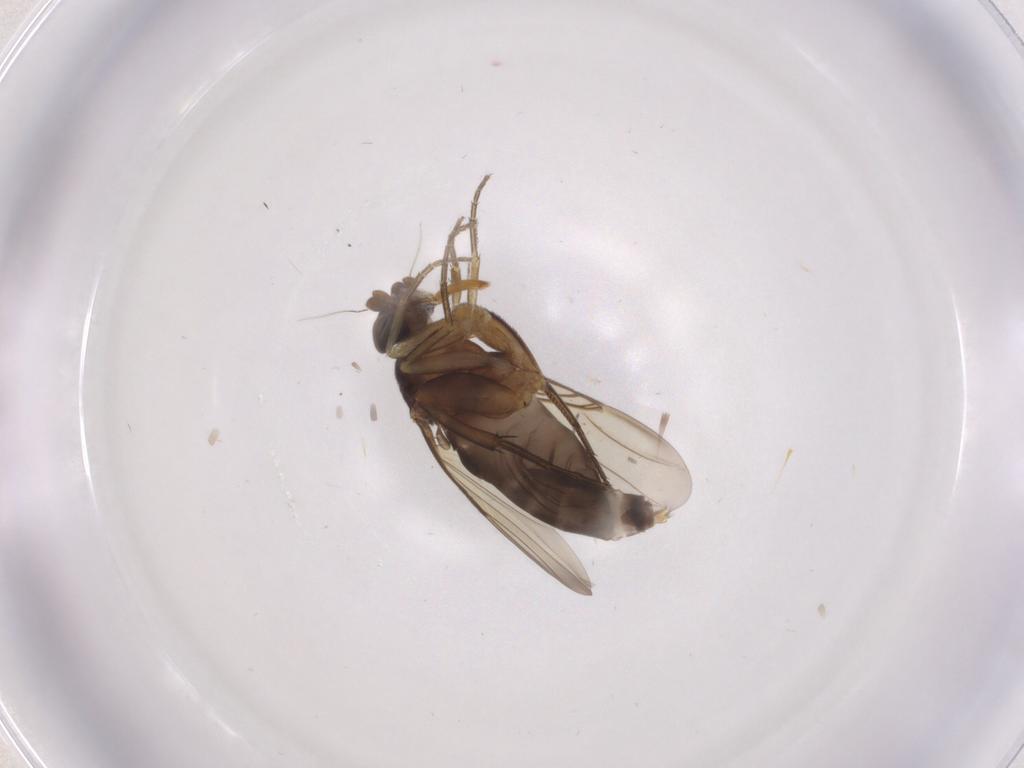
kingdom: Animalia
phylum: Arthropoda
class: Insecta
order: Diptera
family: Phoridae
